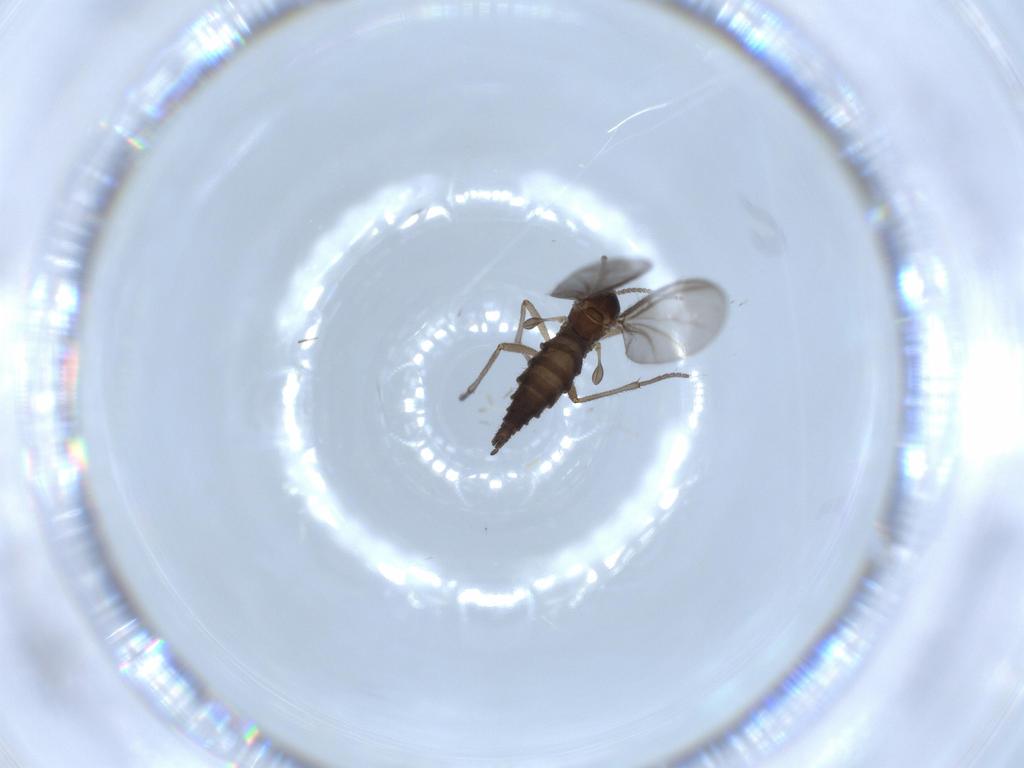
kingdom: Animalia
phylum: Arthropoda
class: Insecta
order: Diptera
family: Sciaridae
